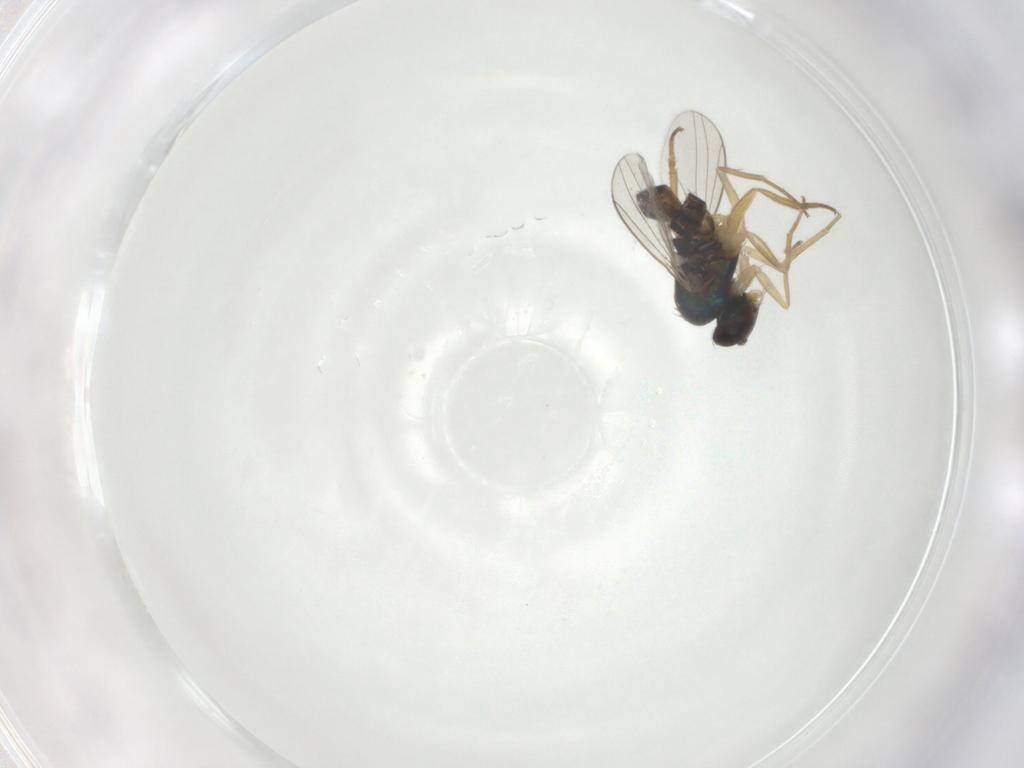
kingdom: Animalia
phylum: Arthropoda
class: Insecta
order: Diptera
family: Dolichopodidae
